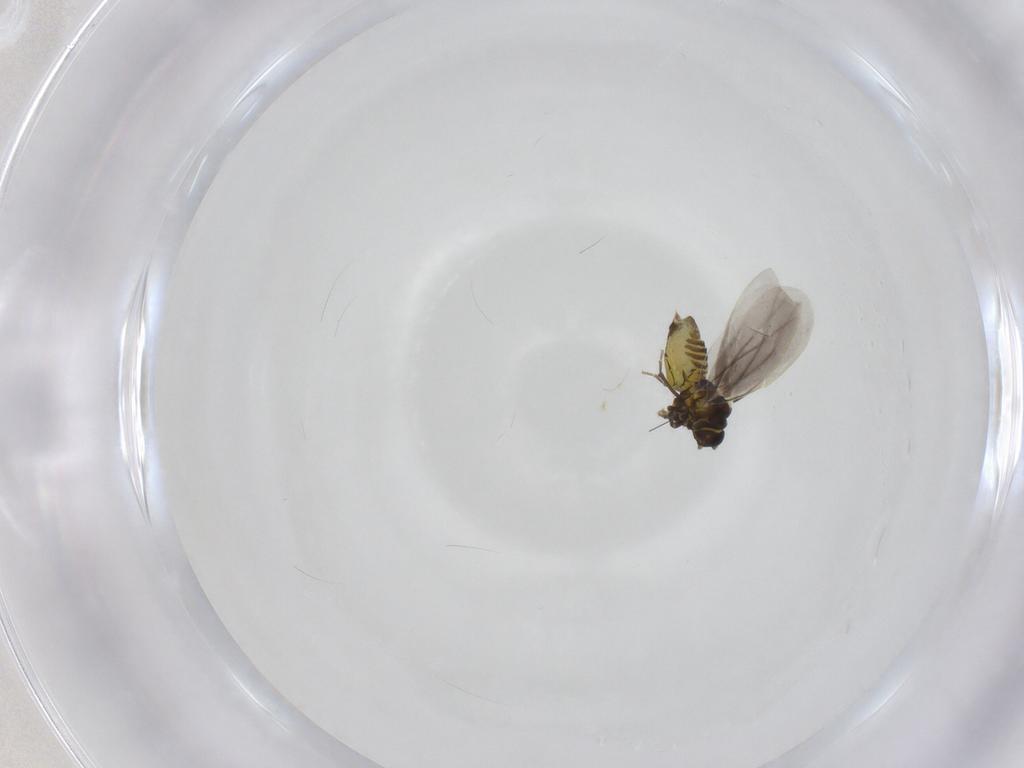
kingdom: Animalia
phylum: Arthropoda
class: Insecta
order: Hemiptera
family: Aleyrodidae
